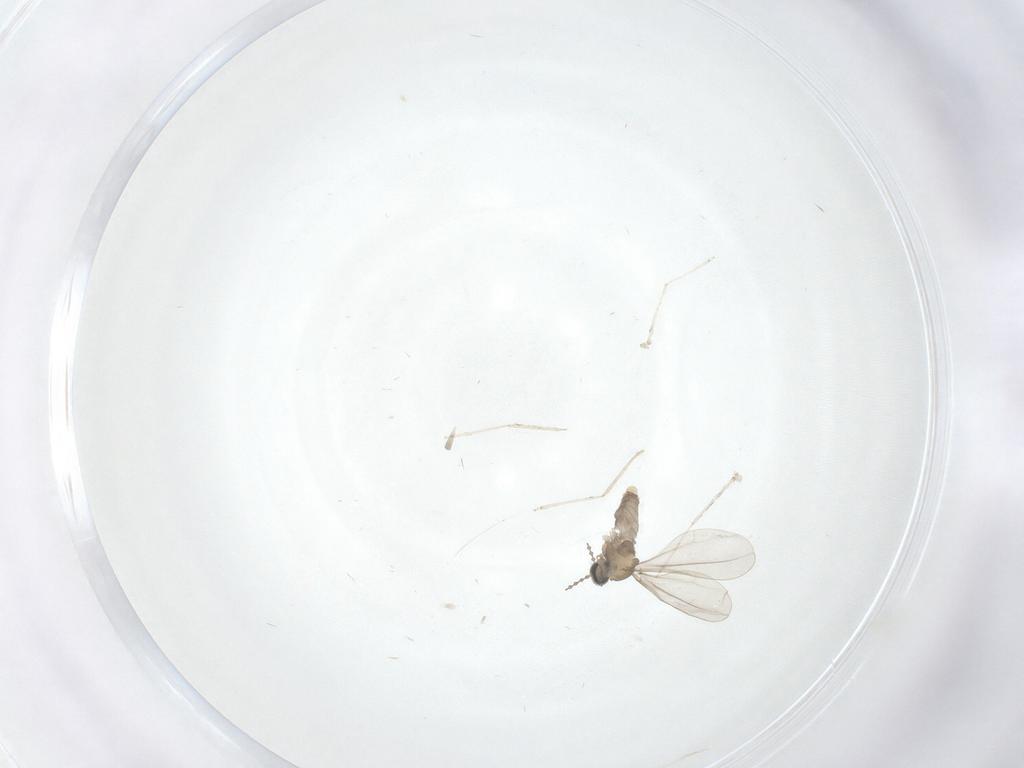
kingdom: Animalia
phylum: Arthropoda
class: Insecta
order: Diptera
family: Cecidomyiidae
